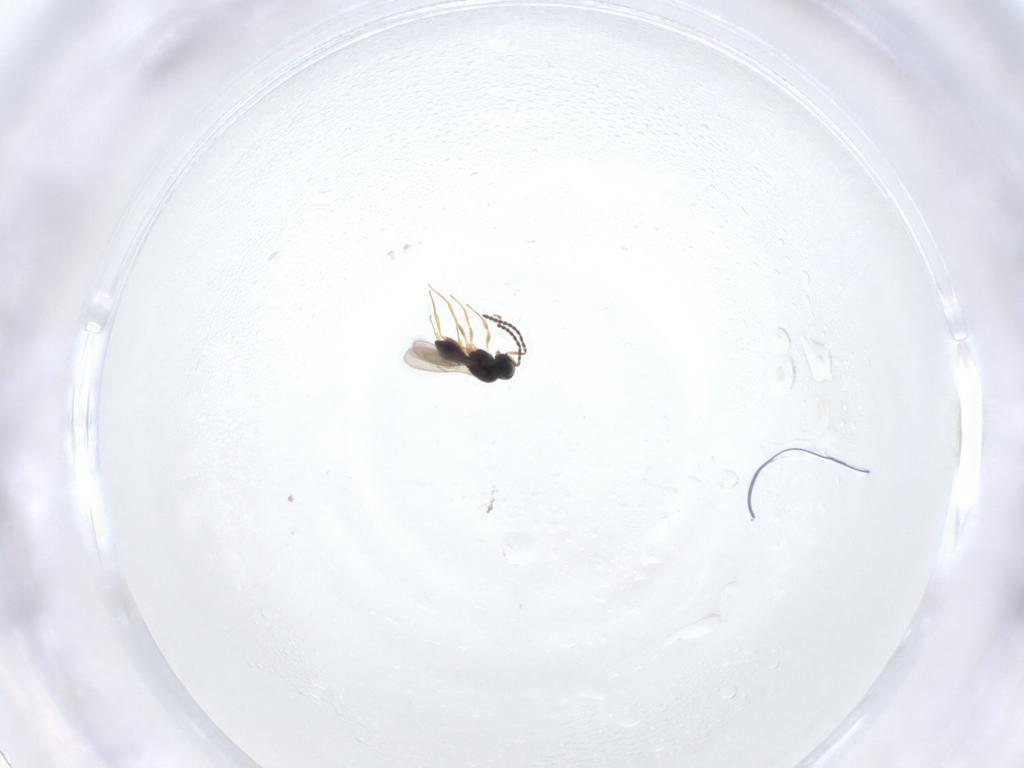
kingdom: Animalia
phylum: Arthropoda
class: Insecta
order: Hymenoptera
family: Scelionidae
